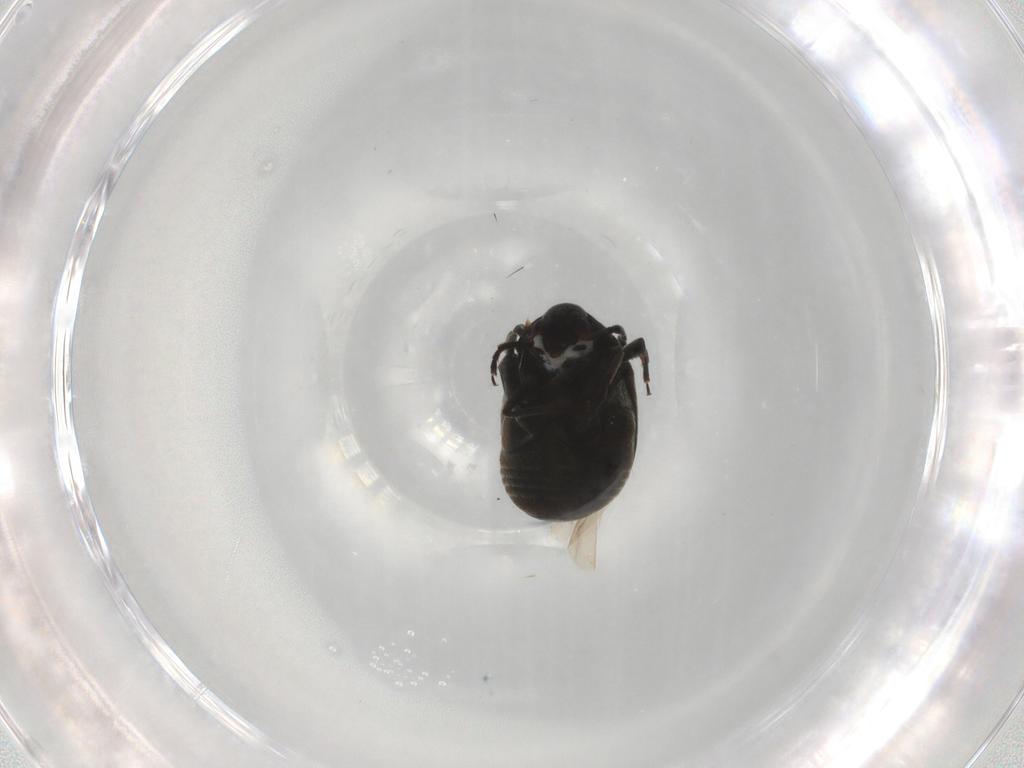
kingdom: Animalia
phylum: Arthropoda
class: Insecta
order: Coleoptera
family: Chrysomelidae
